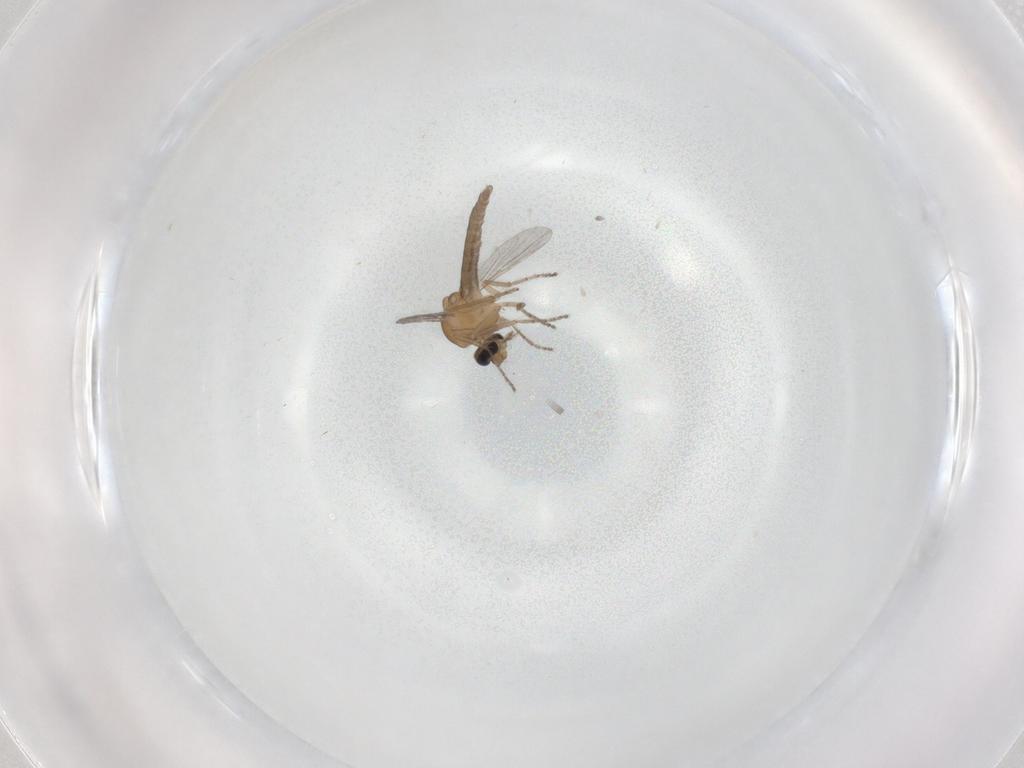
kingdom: Animalia
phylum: Arthropoda
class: Insecta
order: Diptera
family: Ceratopogonidae
